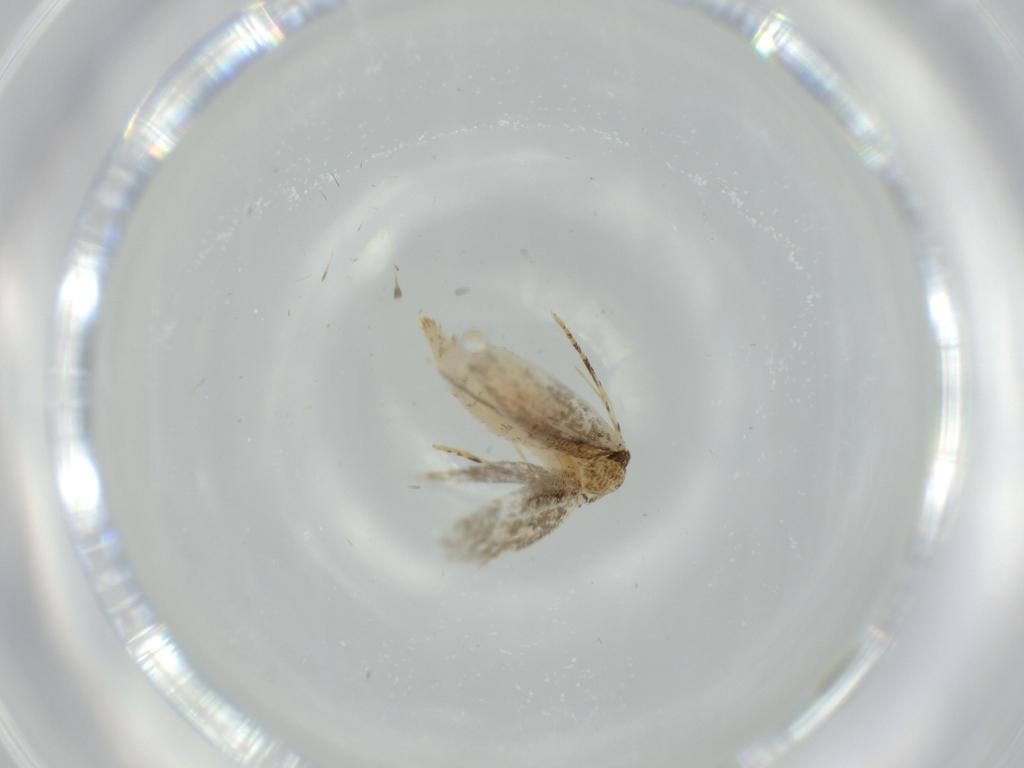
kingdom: Animalia
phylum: Arthropoda
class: Insecta
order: Lepidoptera
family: Tineidae
